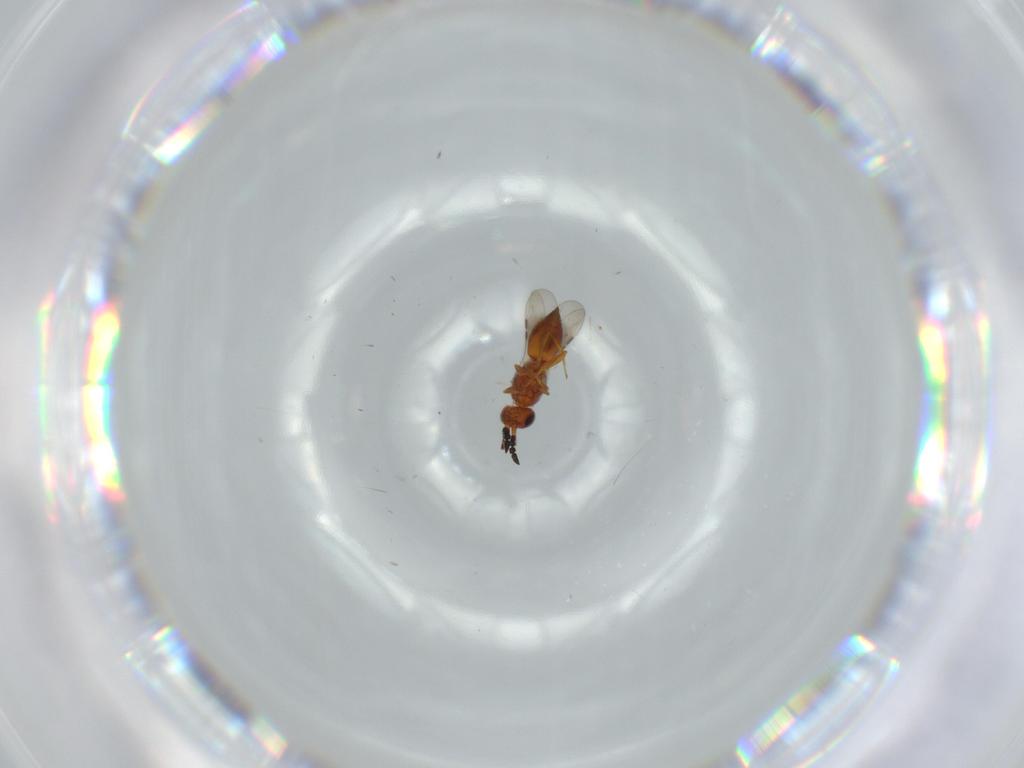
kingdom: Animalia
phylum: Arthropoda
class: Insecta
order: Hymenoptera
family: Ceraphronidae
